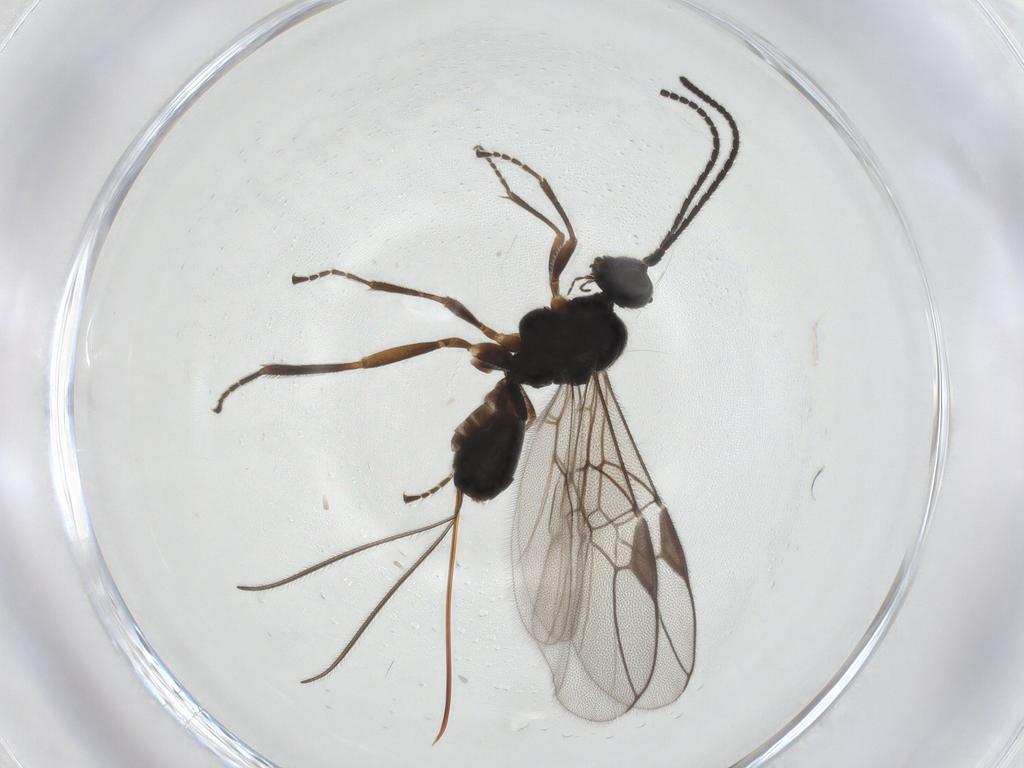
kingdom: Animalia
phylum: Arthropoda
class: Insecta
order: Hymenoptera
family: Braconidae
